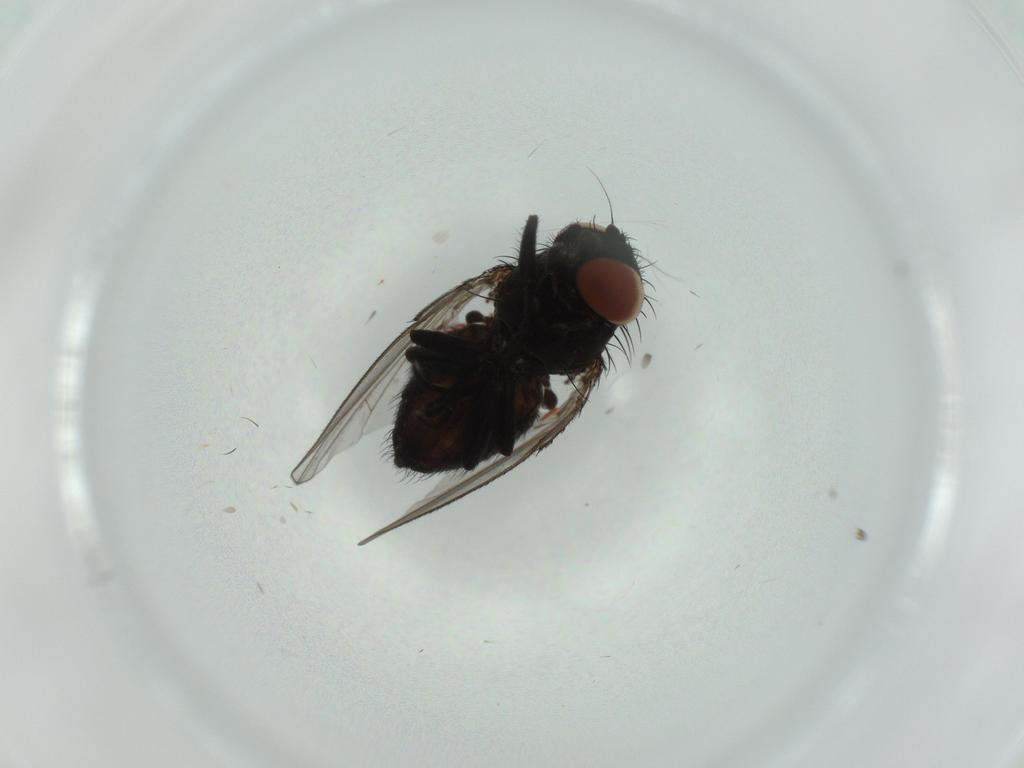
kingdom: Animalia
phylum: Arthropoda
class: Insecta
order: Diptera
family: Milichiidae
